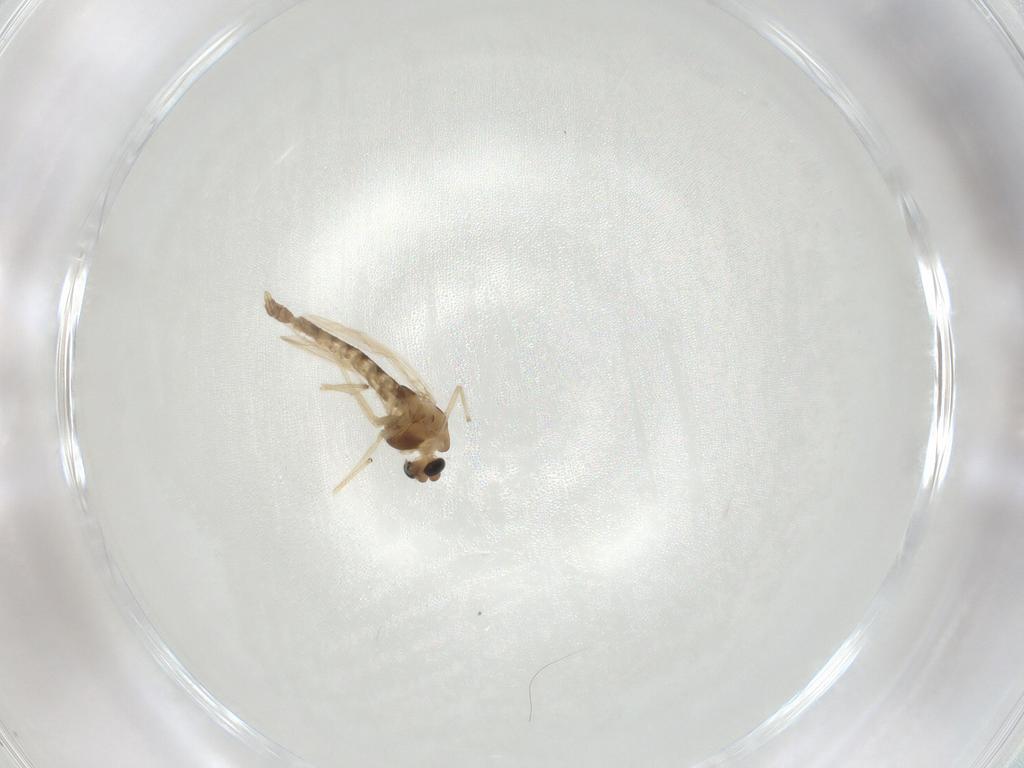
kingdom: Animalia
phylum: Arthropoda
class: Insecta
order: Diptera
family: Chironomidae
